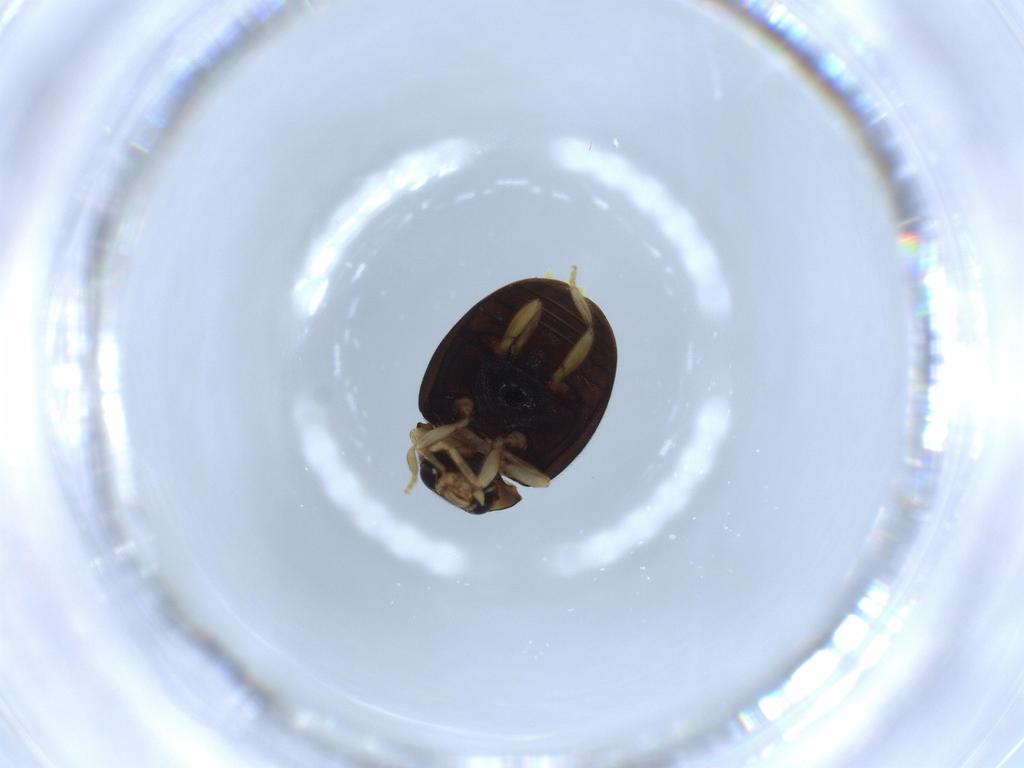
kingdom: Animalia
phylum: Arthropoda
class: Insecta
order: Coleoptera
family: Coccinellidae
